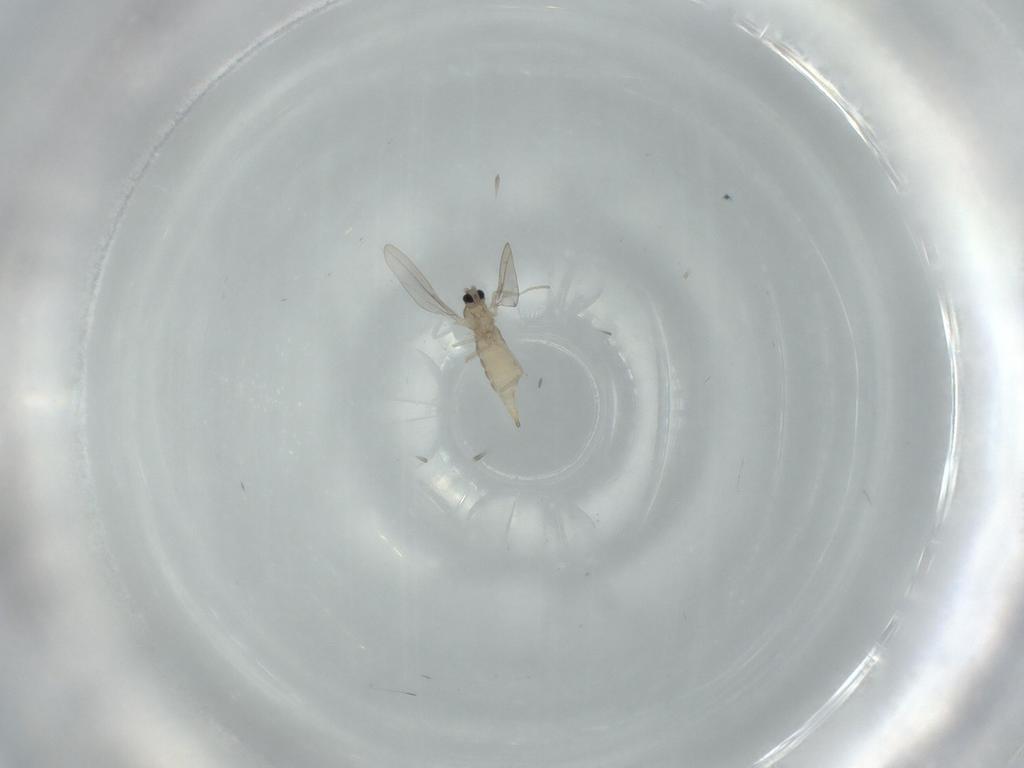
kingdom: Animalia
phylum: Arthropoda
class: Insecta
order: Diptera
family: Cecidomyiidae
